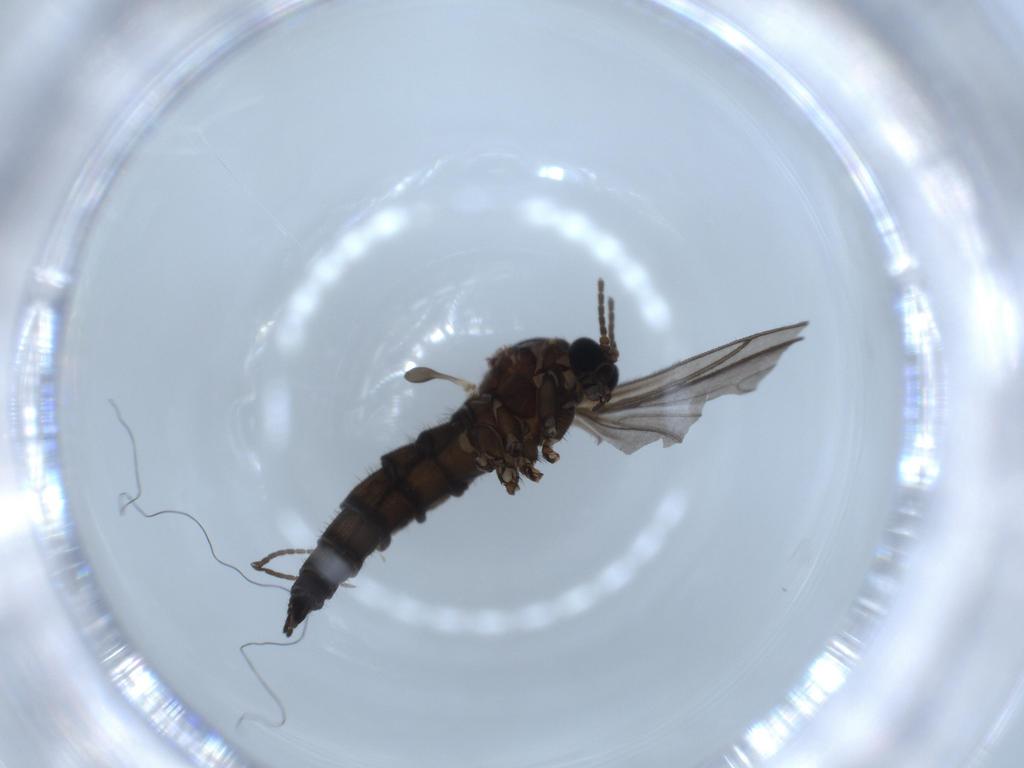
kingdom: Animalia
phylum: Arthropoda
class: Insecta
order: Diptera
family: Sciaridae
